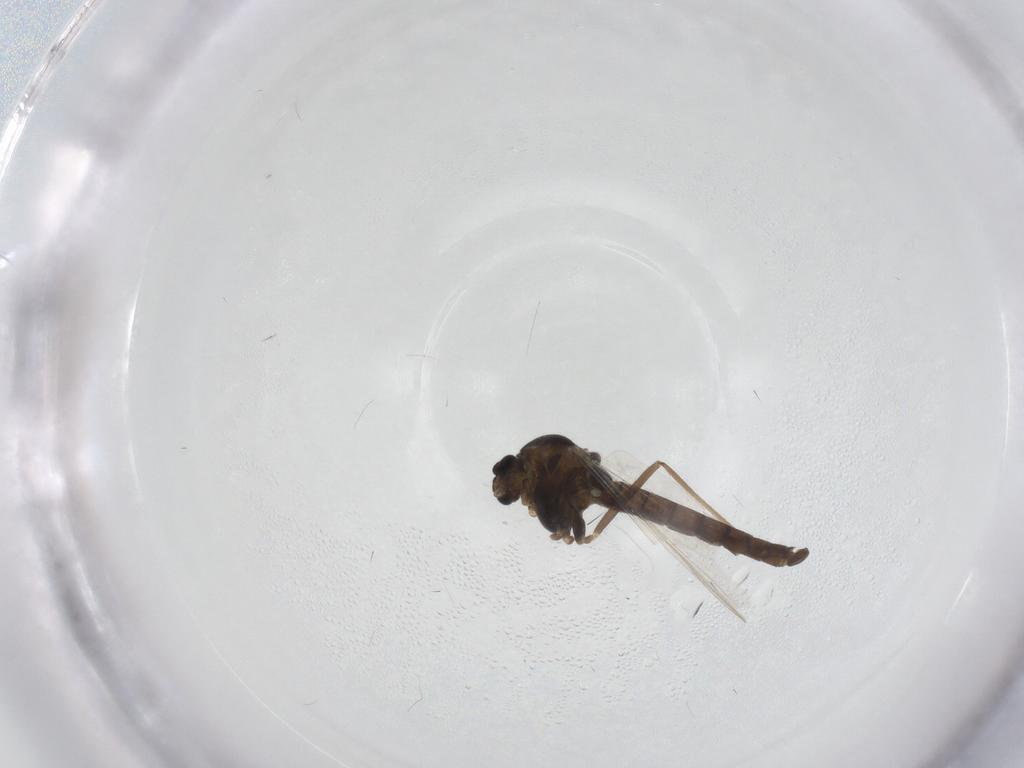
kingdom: Animalia
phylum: Arthropoda
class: Insecta
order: Diptera
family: Chironomidae
